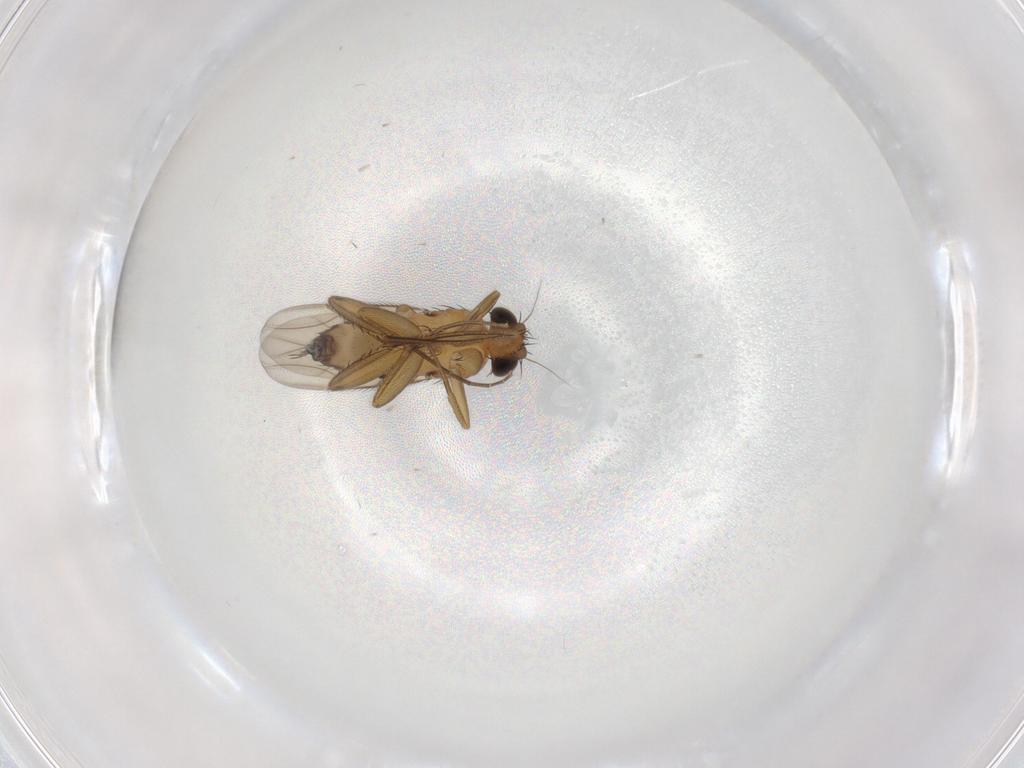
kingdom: Animalia
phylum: Arthropoda
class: Insecta
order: Diptera
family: Phoridae
